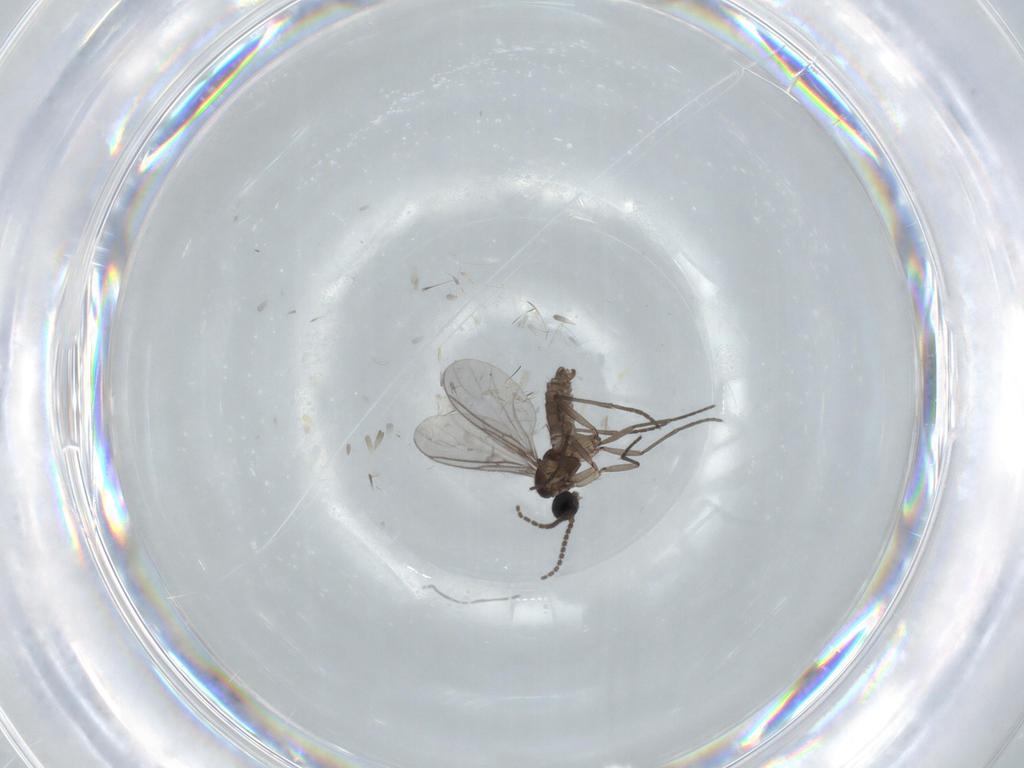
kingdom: Animalia
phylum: Arthropoda
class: Insecta
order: Diptera
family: Cecidomyiidae
